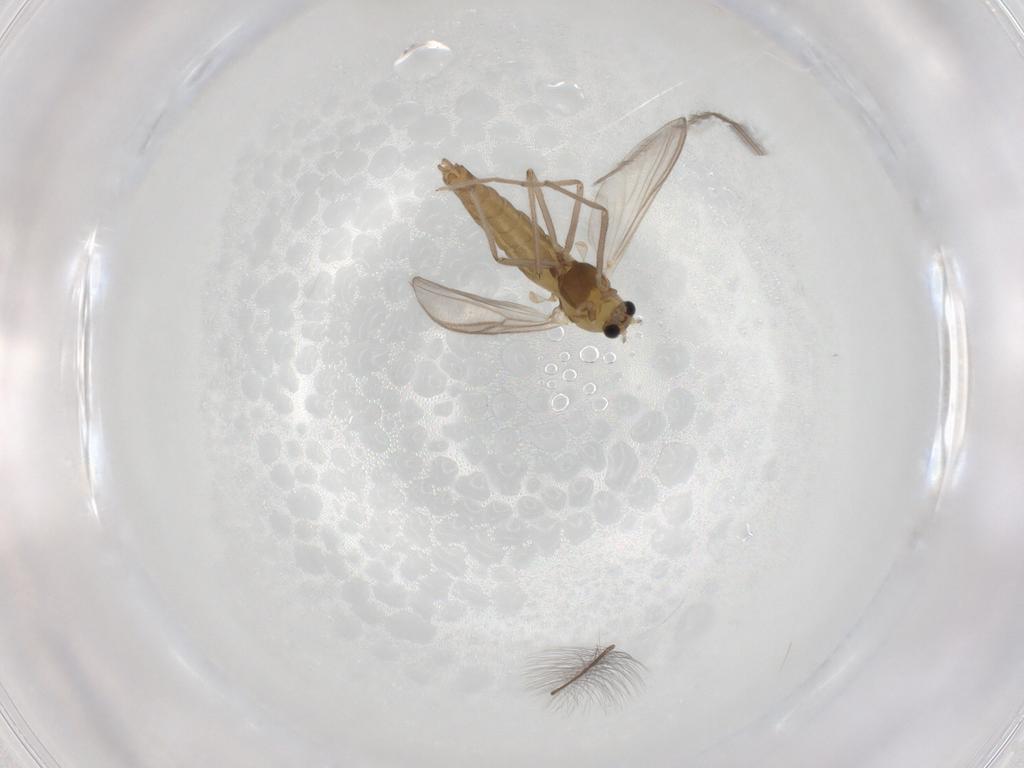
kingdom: Animalia
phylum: Arthropoda
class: Insecta
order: Diptera
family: Chironomidae
